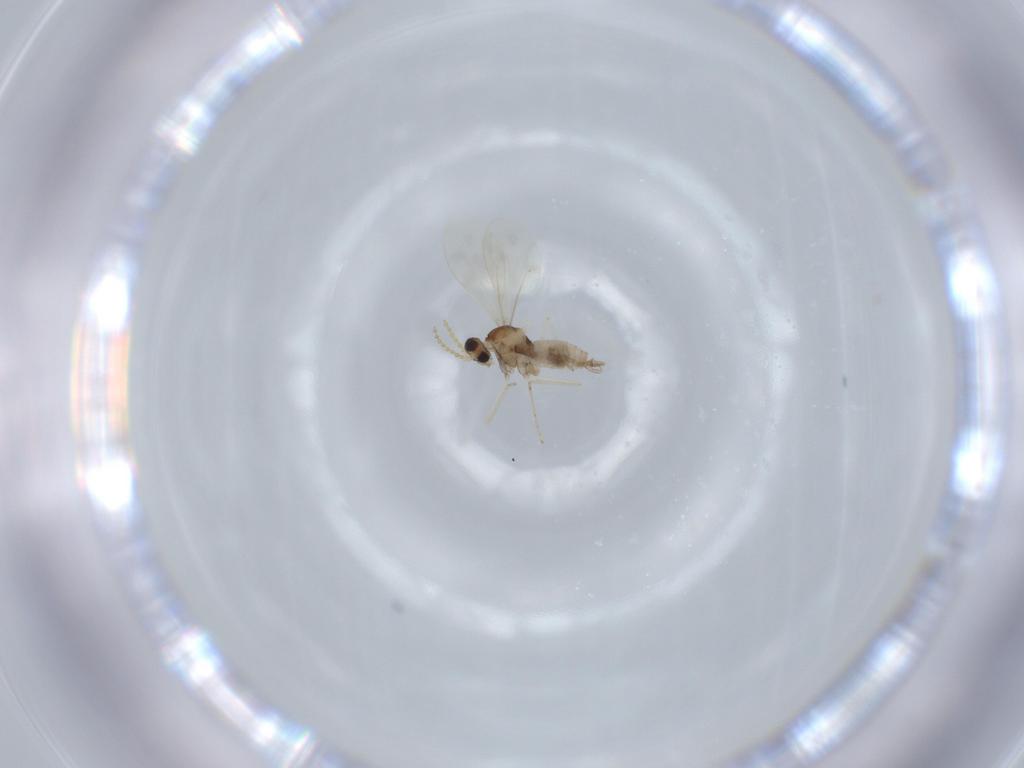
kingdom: Animalia
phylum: Arthropoda
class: Insecta
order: Diptera
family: Cecidomyiidae
